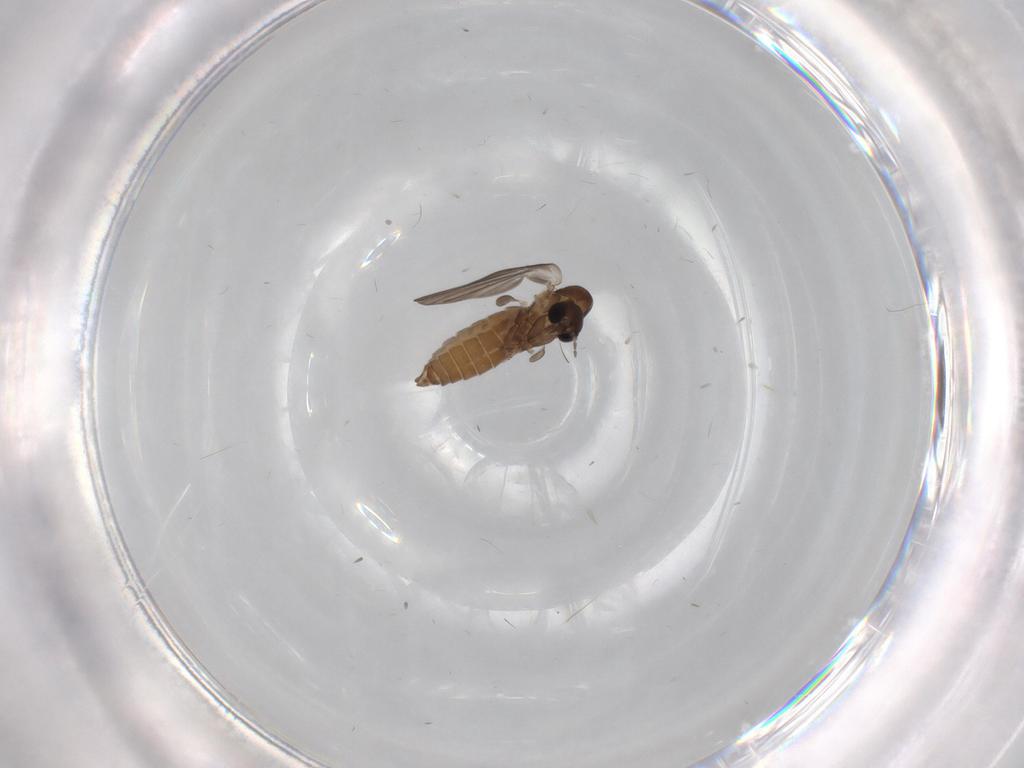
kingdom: Animalia
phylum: Arthropoda
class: Insecta
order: Diptera
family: Psychodidae
